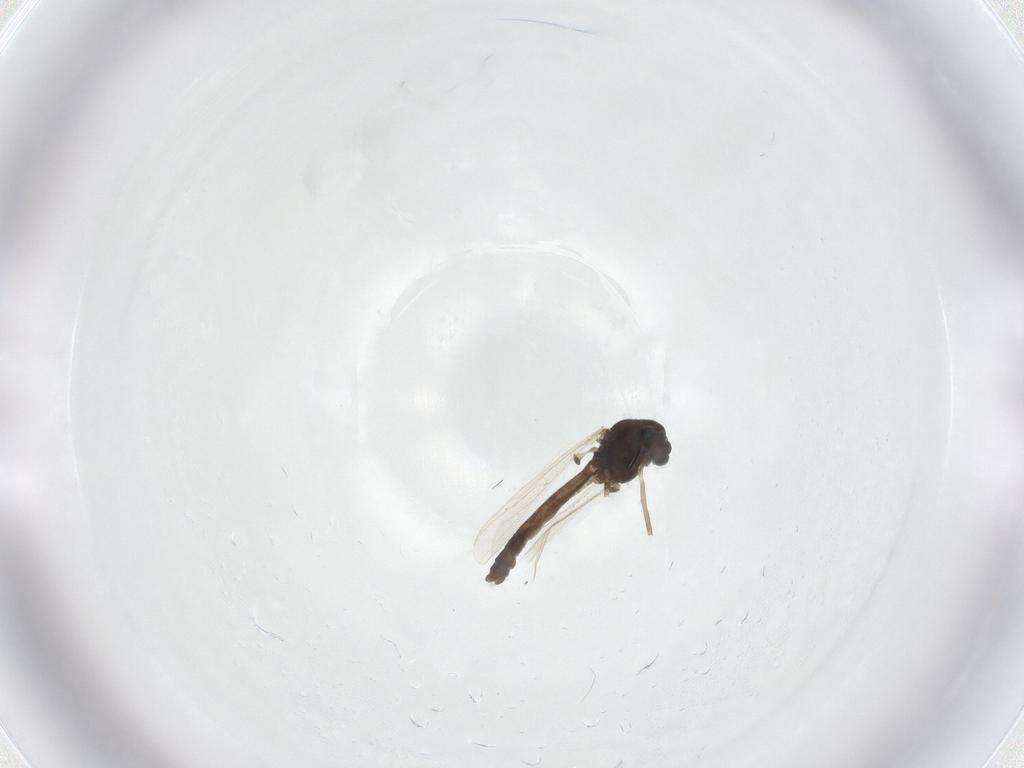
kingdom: Animalia
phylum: Arthropoda
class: Insecta
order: Diptera
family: Chironomidae
